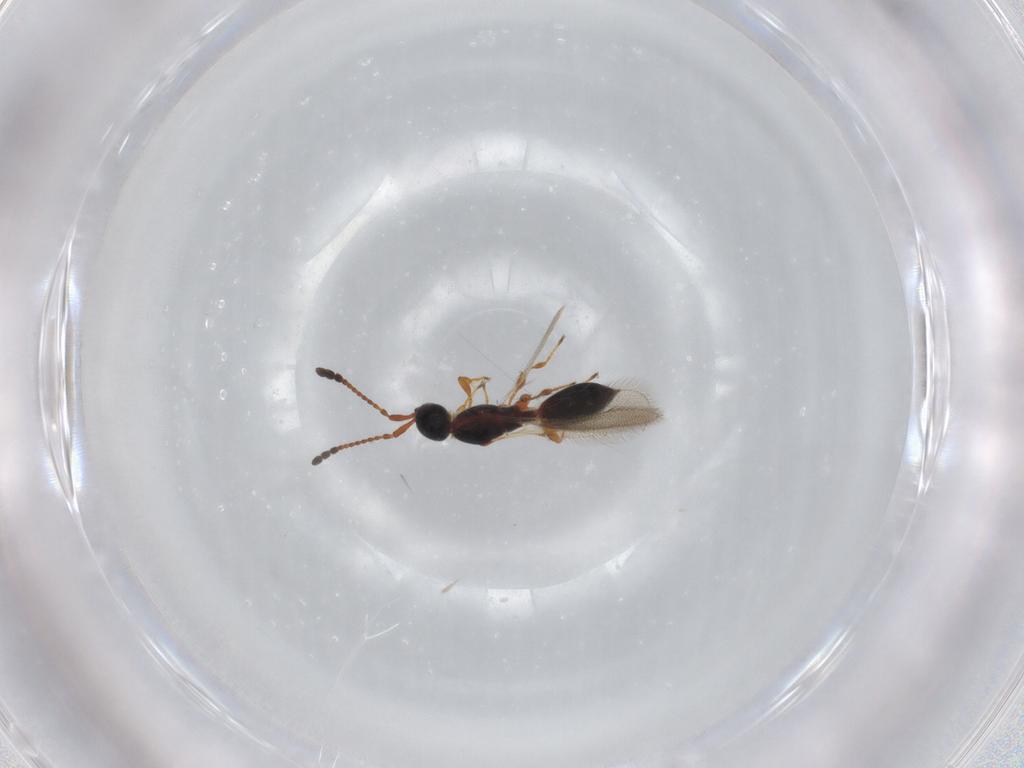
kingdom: Animalia
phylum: Arthropoda
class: Insecta
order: Hymenoptera
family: Diapriidae
